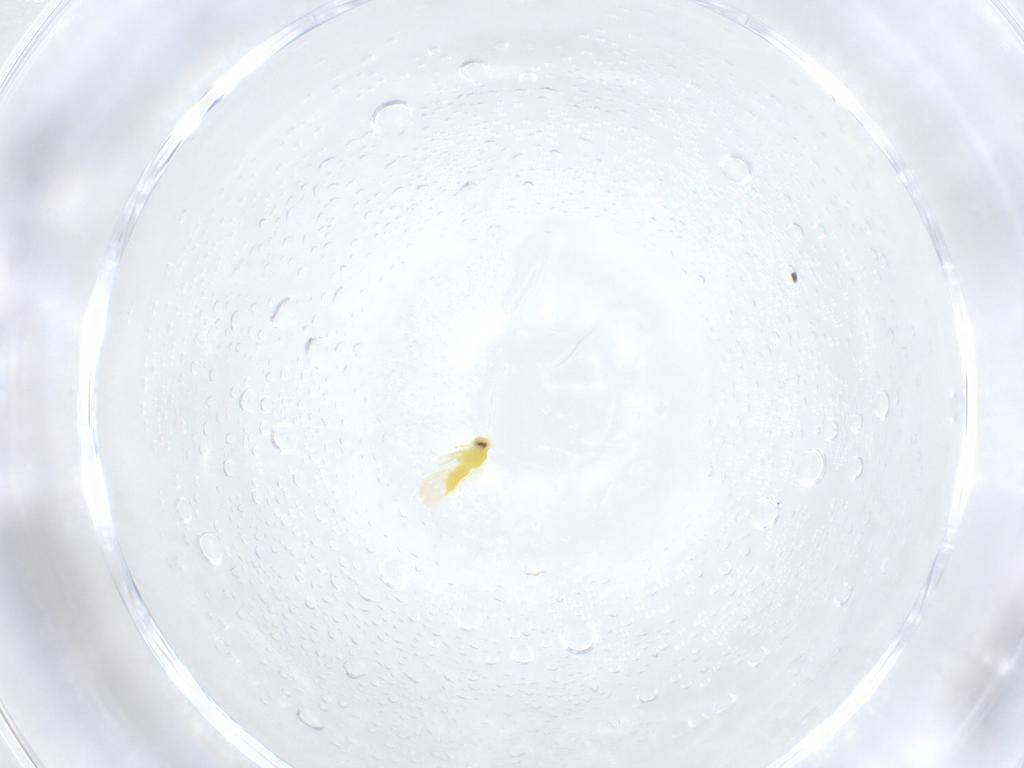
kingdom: Animalia
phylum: Arthropoda
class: Insecta
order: Hemiptera
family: Aleyrodidae
